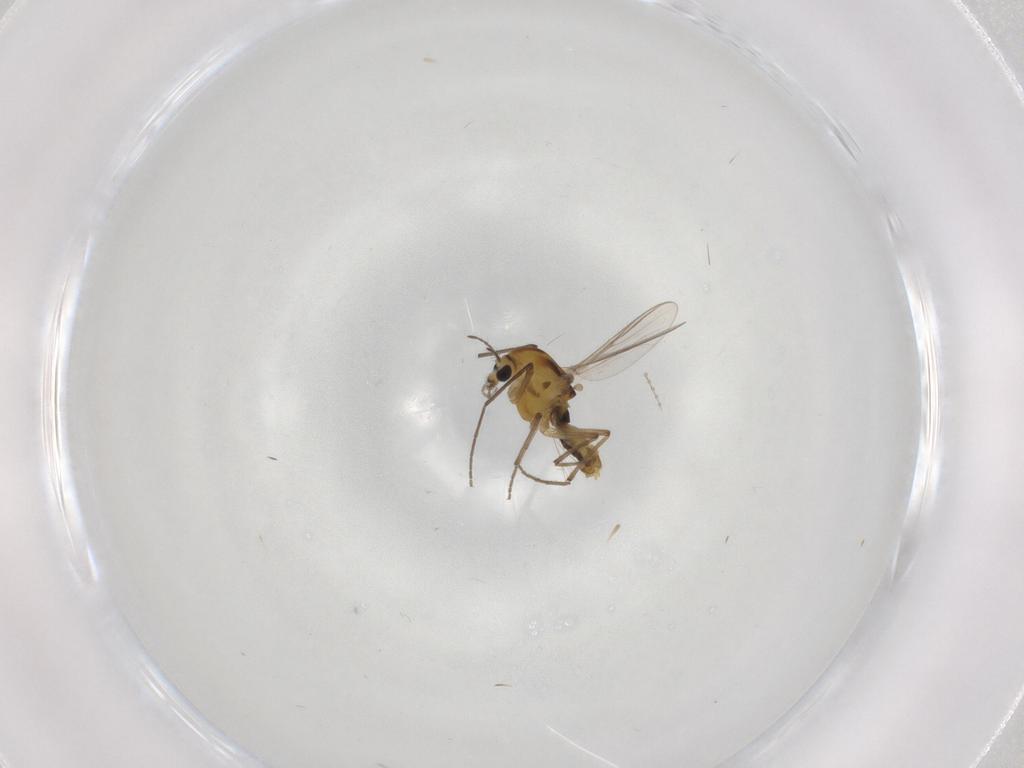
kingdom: Animalia
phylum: Arthropoda
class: Insecta
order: Diptera
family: Chironomidae
